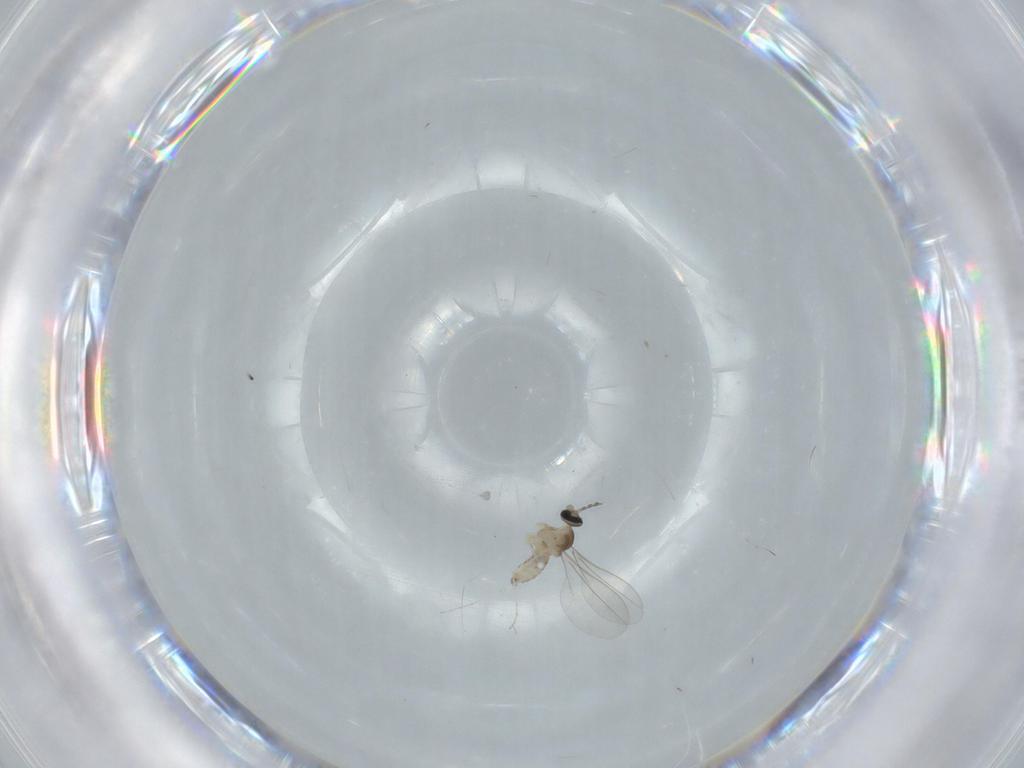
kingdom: Animalia
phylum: Arthropoda
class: Insecta
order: Diptera
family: Cecidomyiidae
